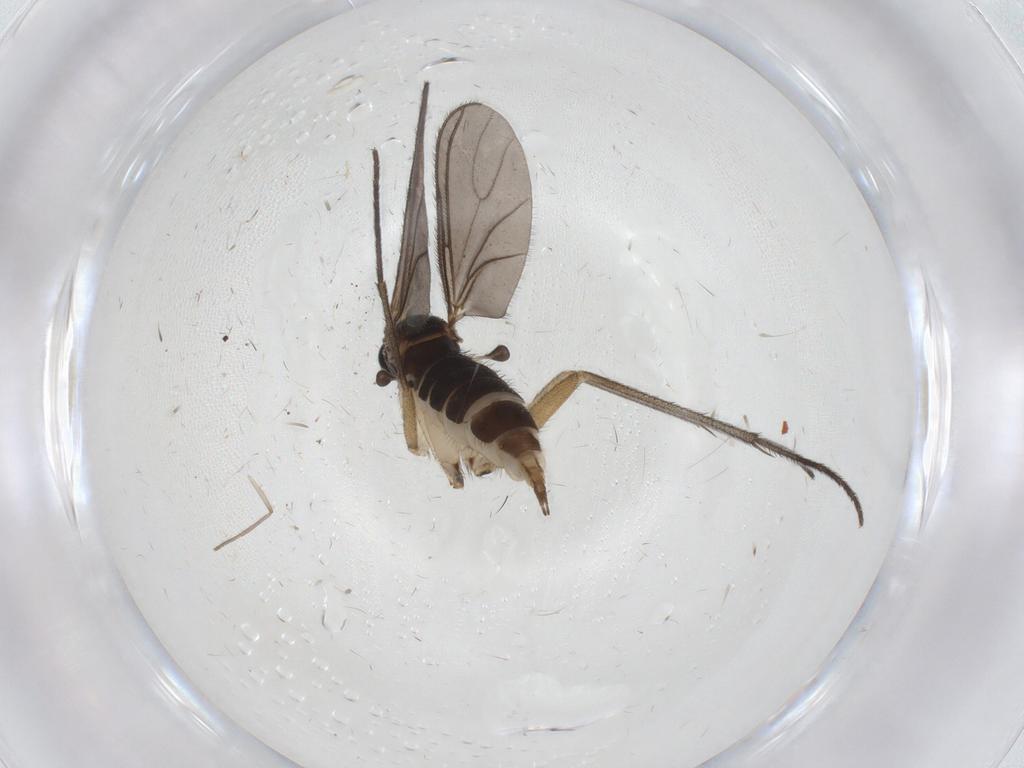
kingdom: Animalia
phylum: Arthropoda
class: Insecta
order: Diptera
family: Sciaridae
